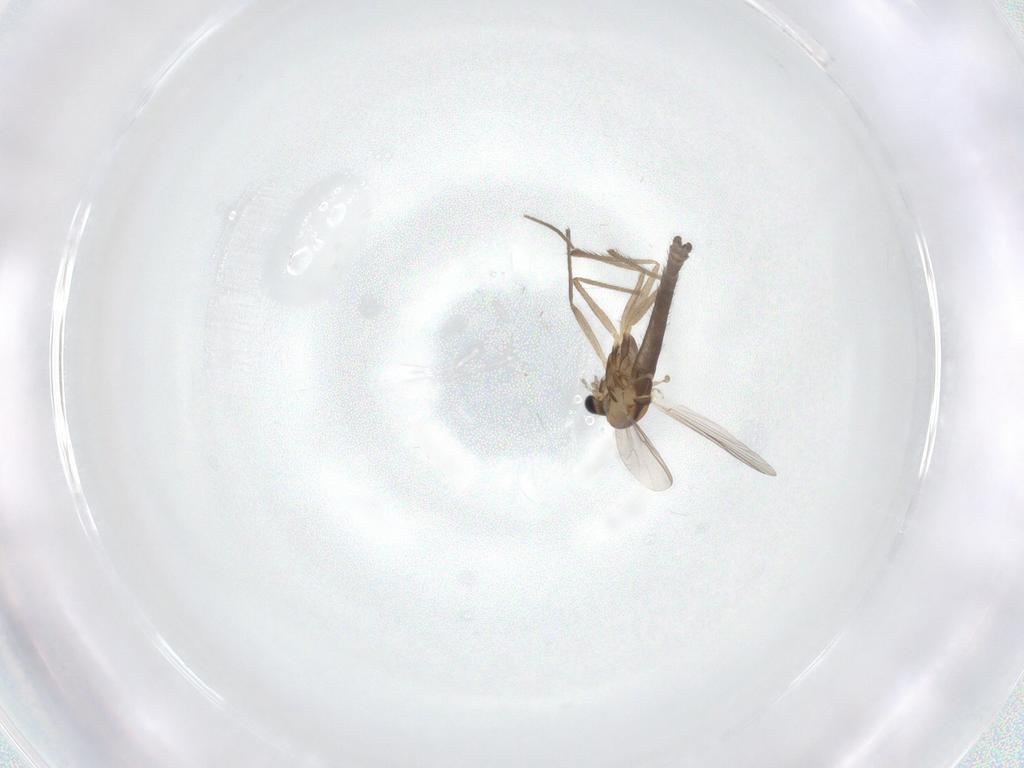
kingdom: Animalia
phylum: Arthropoda
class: Insecta
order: Diptera
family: Chironomidae
